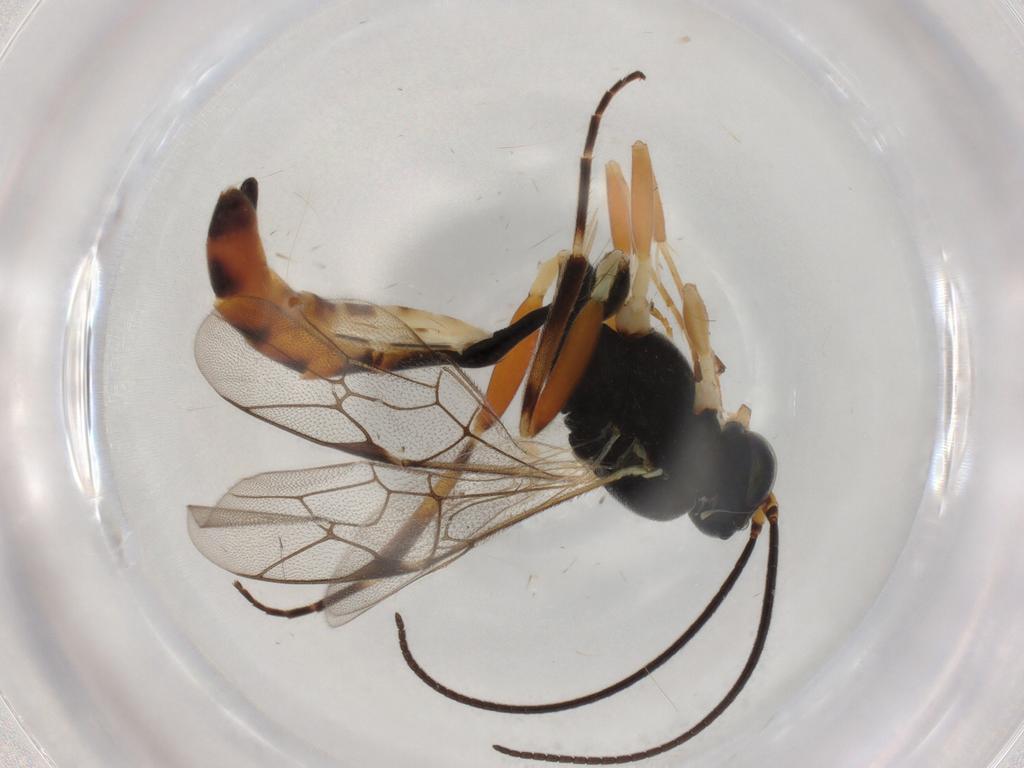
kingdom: Animalia
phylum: Arthropoda
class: Insecta
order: Hymenoptera
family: Ichneumonidae
